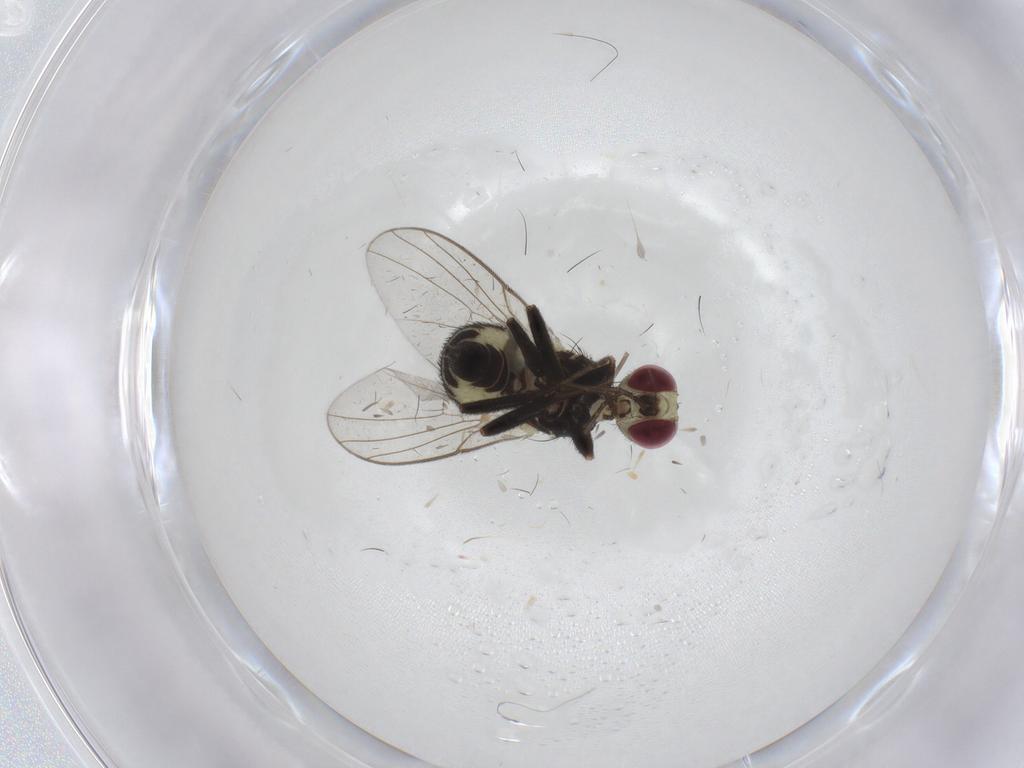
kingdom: Animalia
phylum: Arthropoda
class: Insecta
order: Diptera
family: Sciaridae
